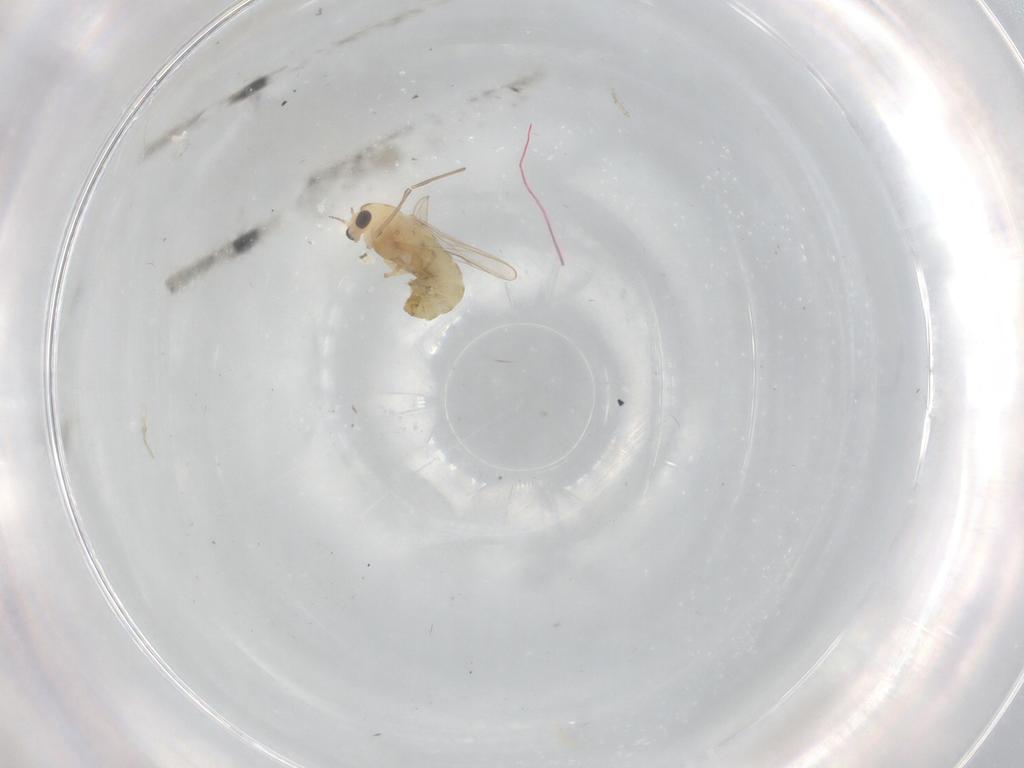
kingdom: Animalia
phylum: Arthropoda
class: Insecta
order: Diptera
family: Chironomidae
